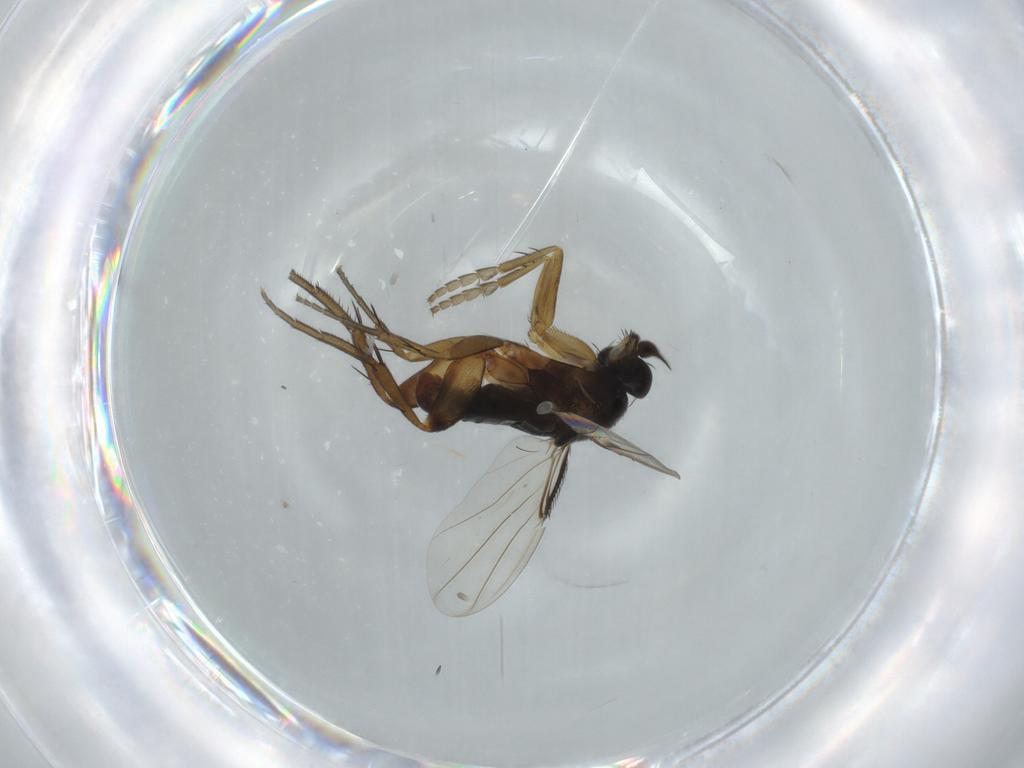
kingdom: Animalia
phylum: Arthropoda
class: Insecta
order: Diptera
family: Phoridae
